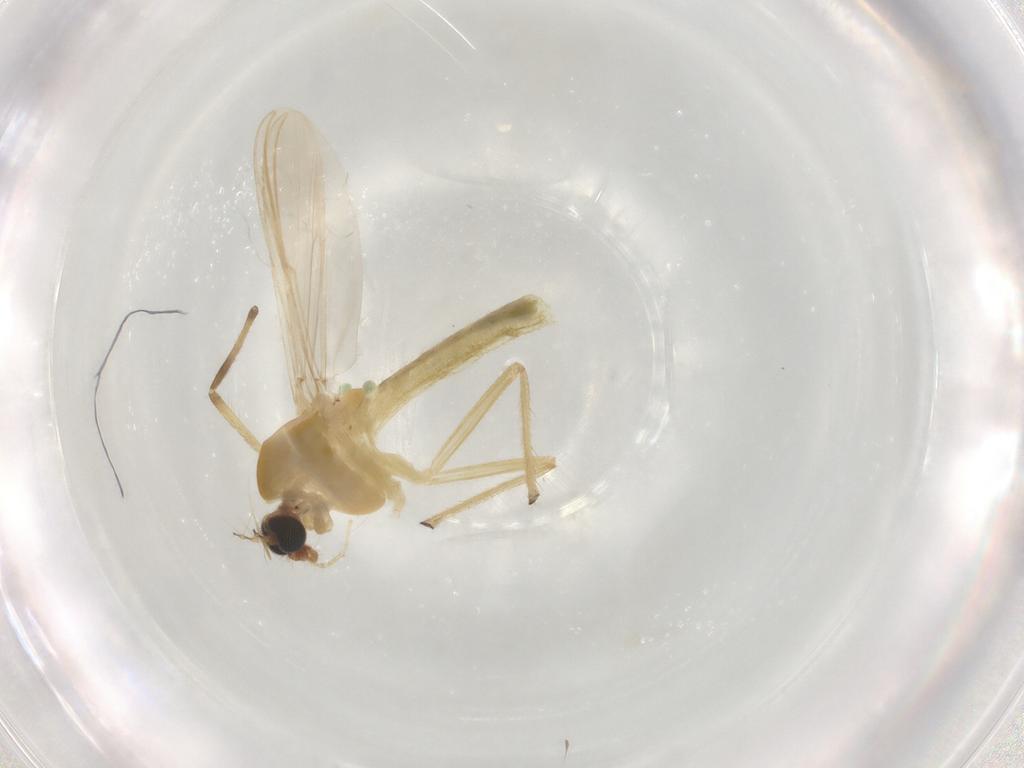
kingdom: Animalia
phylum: Arthropoda
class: Insecta
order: Diptera
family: Chironomidae
